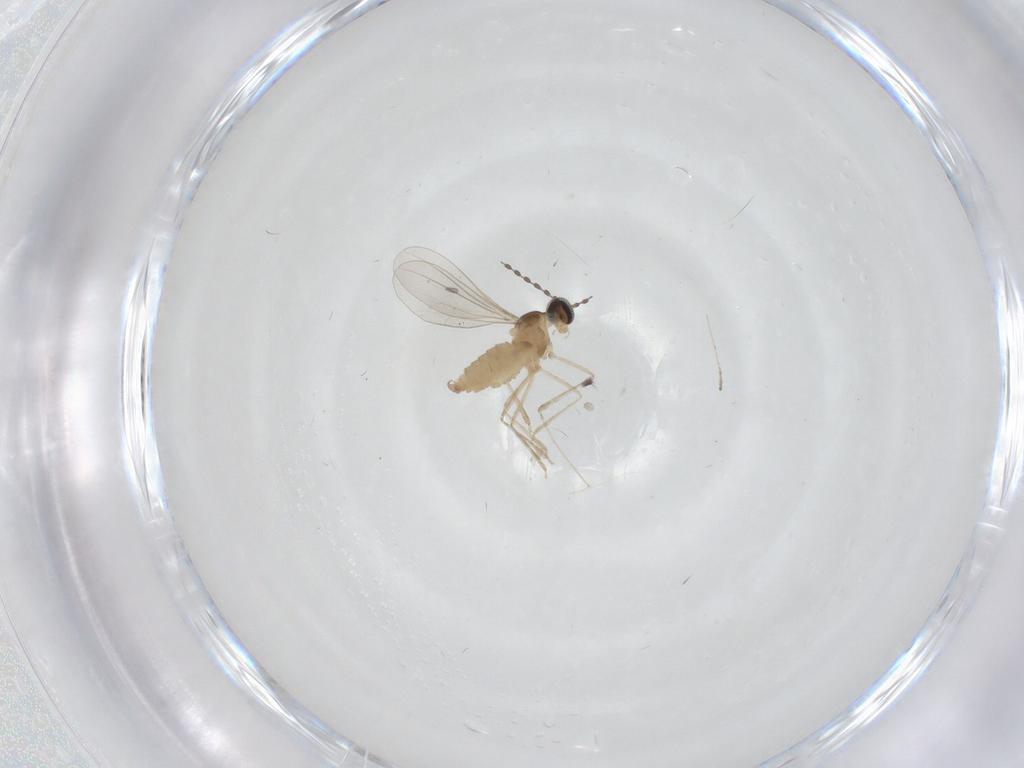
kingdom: Animalia
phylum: Arthropoda
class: Insecta
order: Diptera
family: Cecidomyiidae
